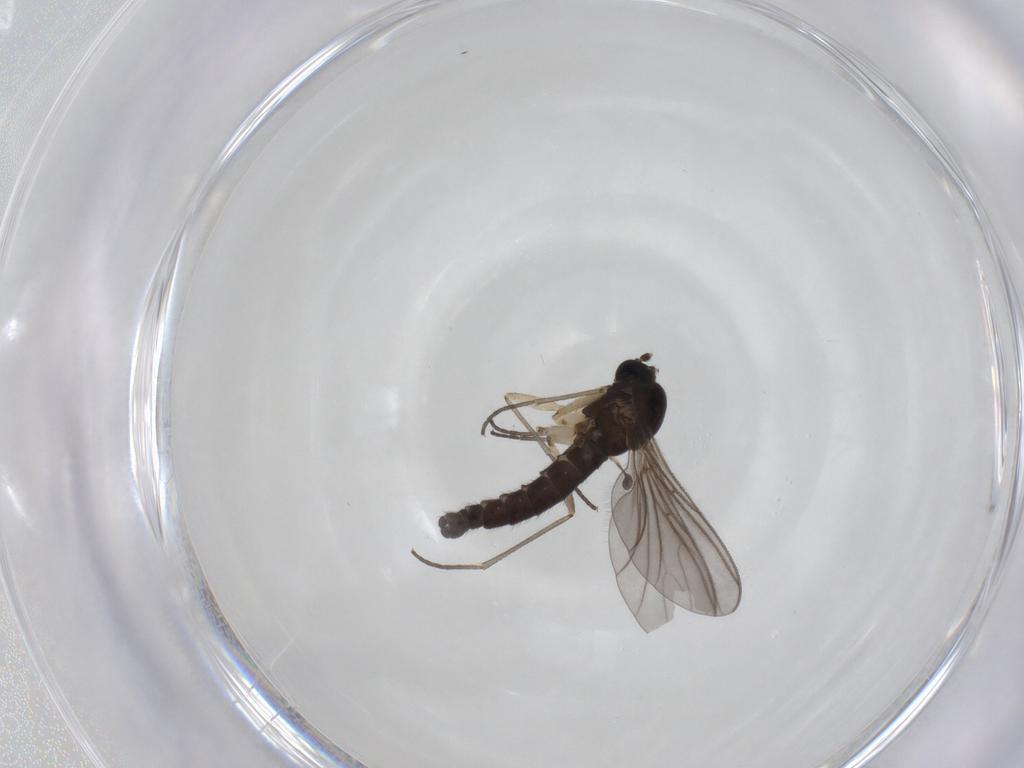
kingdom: Animalia
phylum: Arthropoda
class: Insecta
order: Diptera
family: Sciaridae
